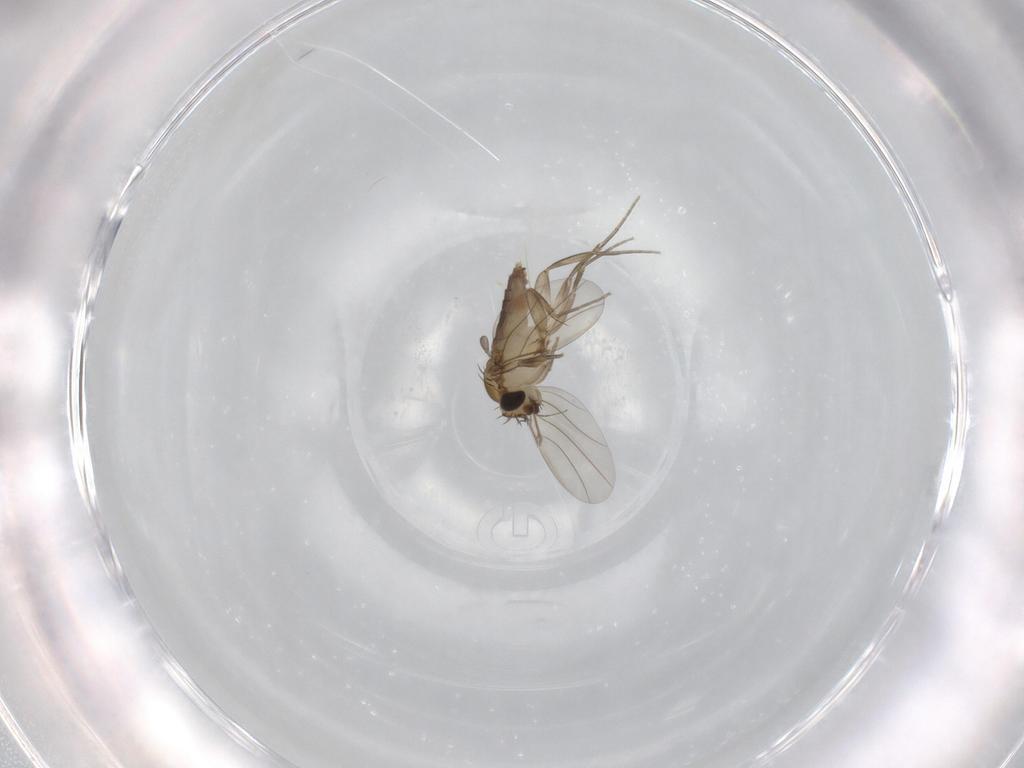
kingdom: Animalia
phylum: Arthropoda
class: Insecta
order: Diptera
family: Phoridae
